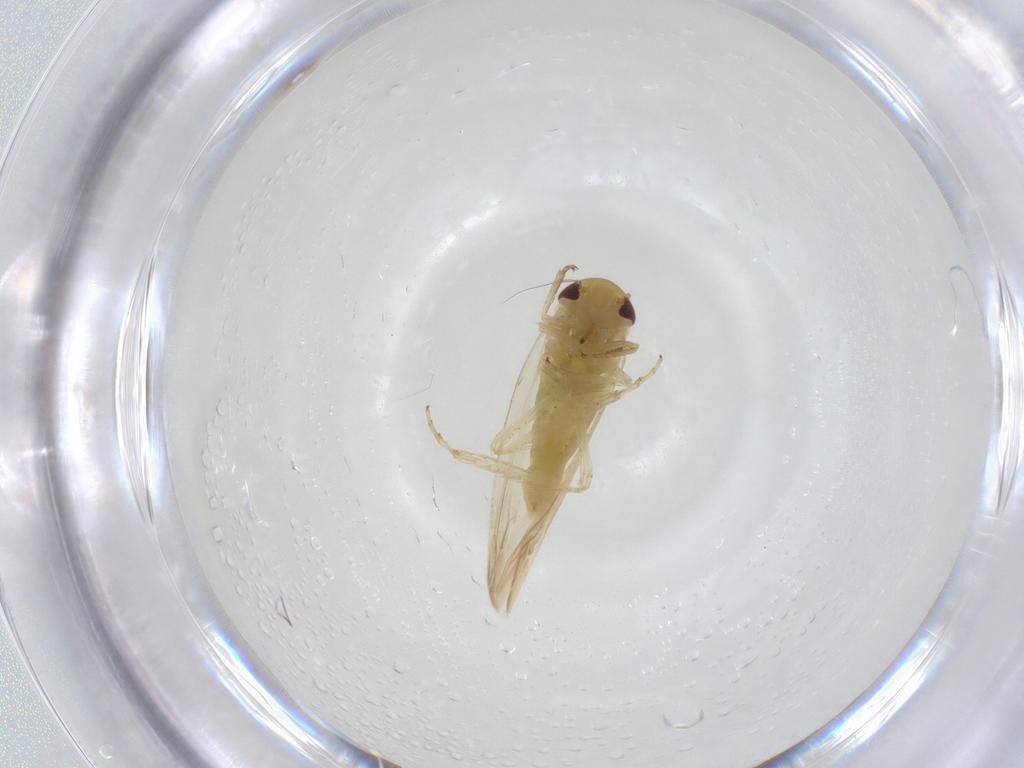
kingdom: Animalia
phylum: Arthropoda
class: Insecta
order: Hemiptera
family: Cicadellidae
